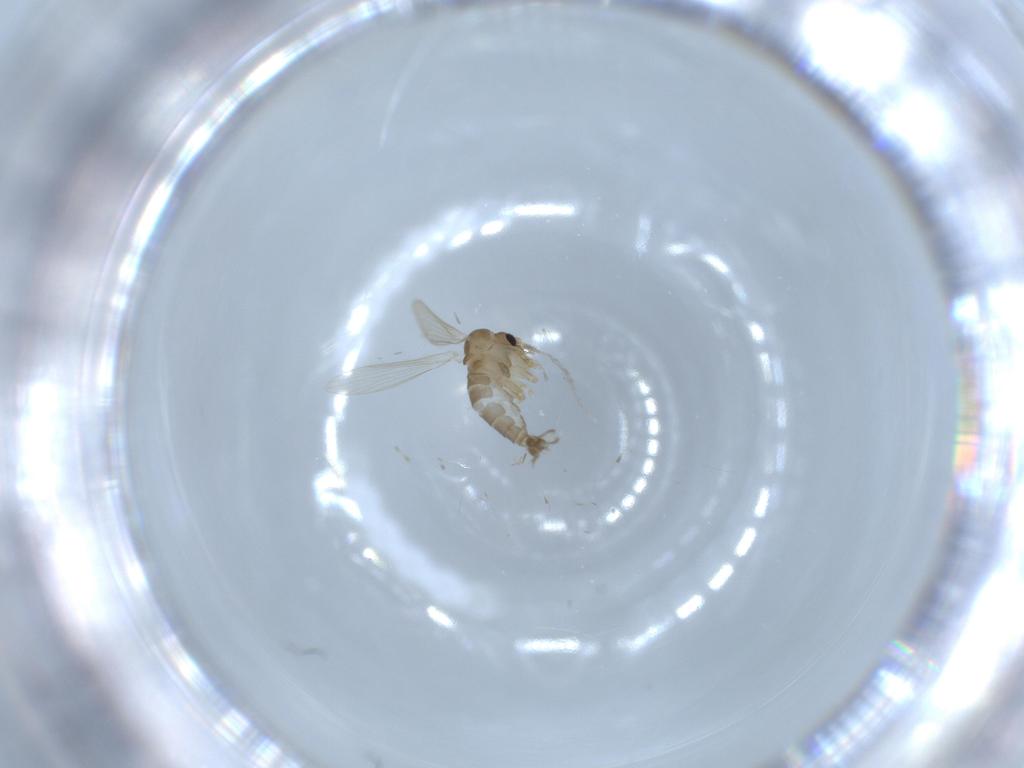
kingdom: Animalia
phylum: Arthropoda
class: Insecta
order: Diptera
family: Psychodidae
